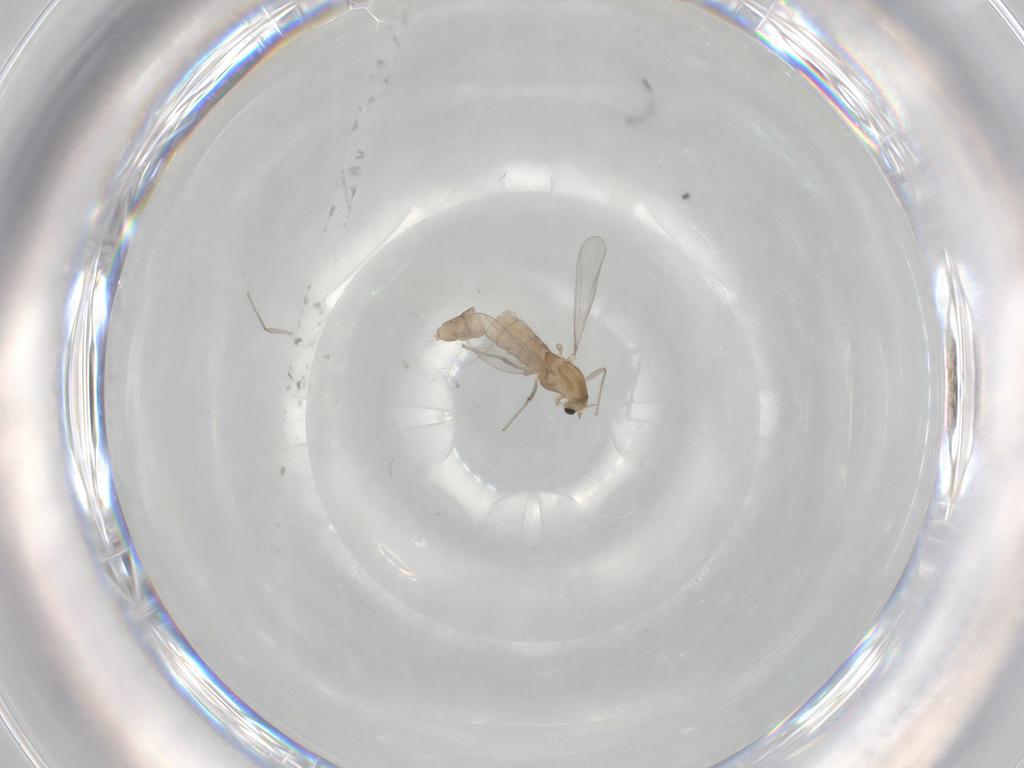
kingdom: Animalia
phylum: Arthropoda
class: Insecta
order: Diptera
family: Chironomidae
